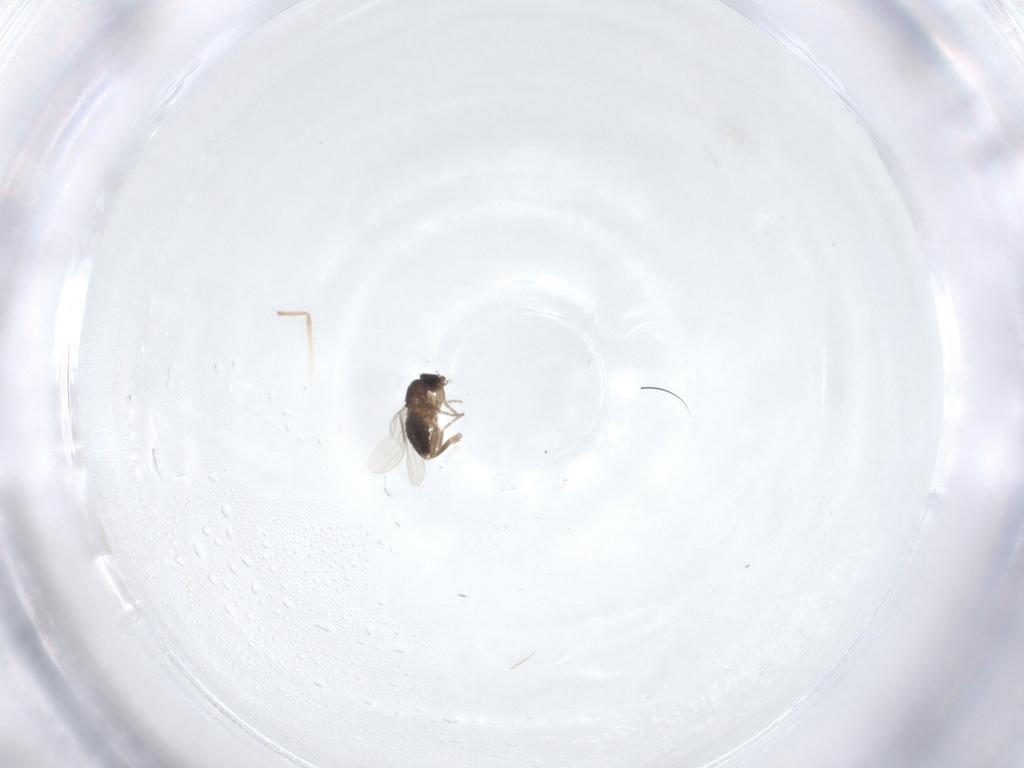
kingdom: Animalia
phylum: Arthropoda
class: Insecta
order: Diptera
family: Phoridae
